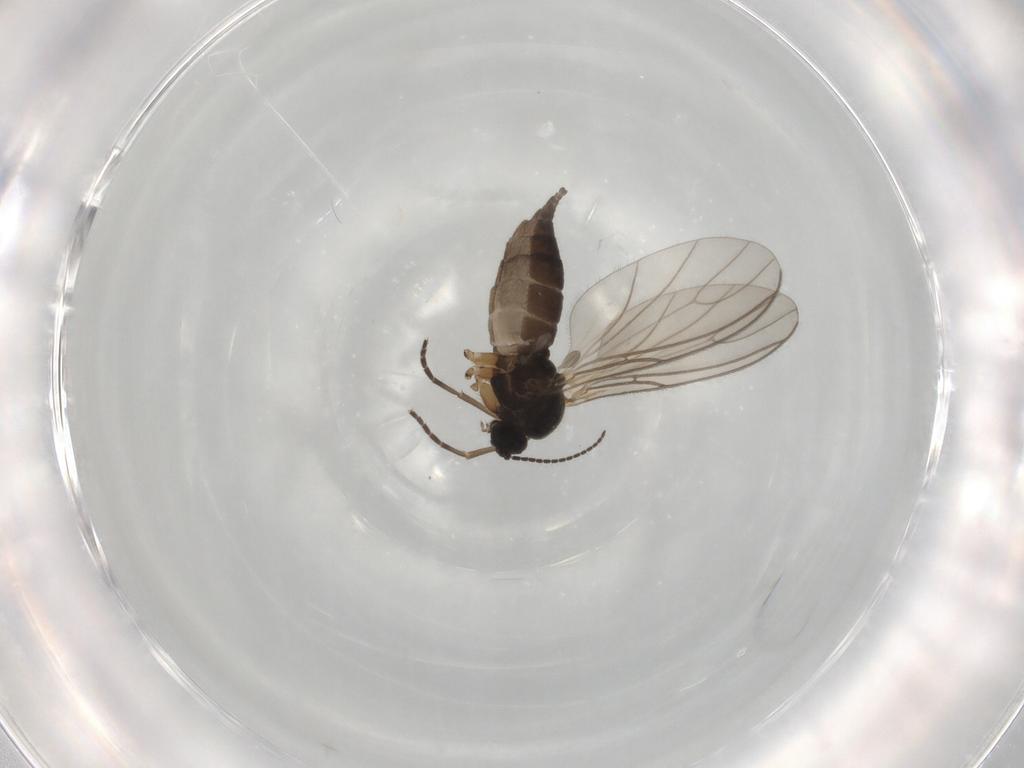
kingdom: Animalia
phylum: Arthropoda
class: Insecta
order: Diptera
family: Sciaridae
